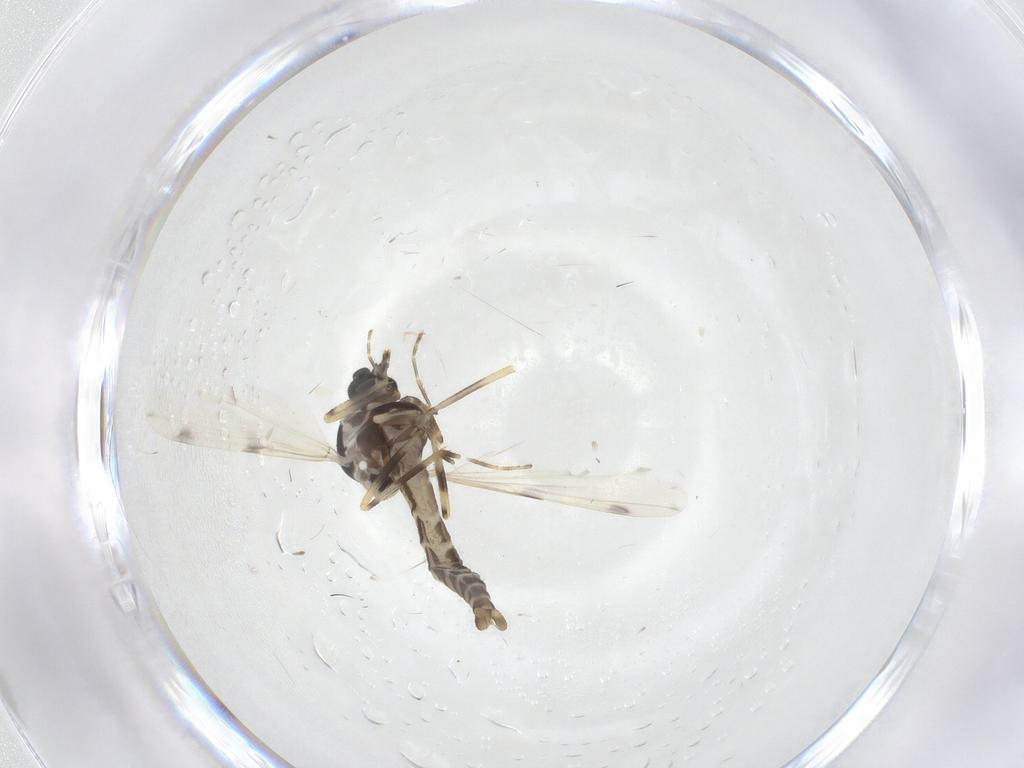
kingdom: Animalia
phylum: Arthropoda
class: Insecta
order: Diptera
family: Ceratopogonidae
